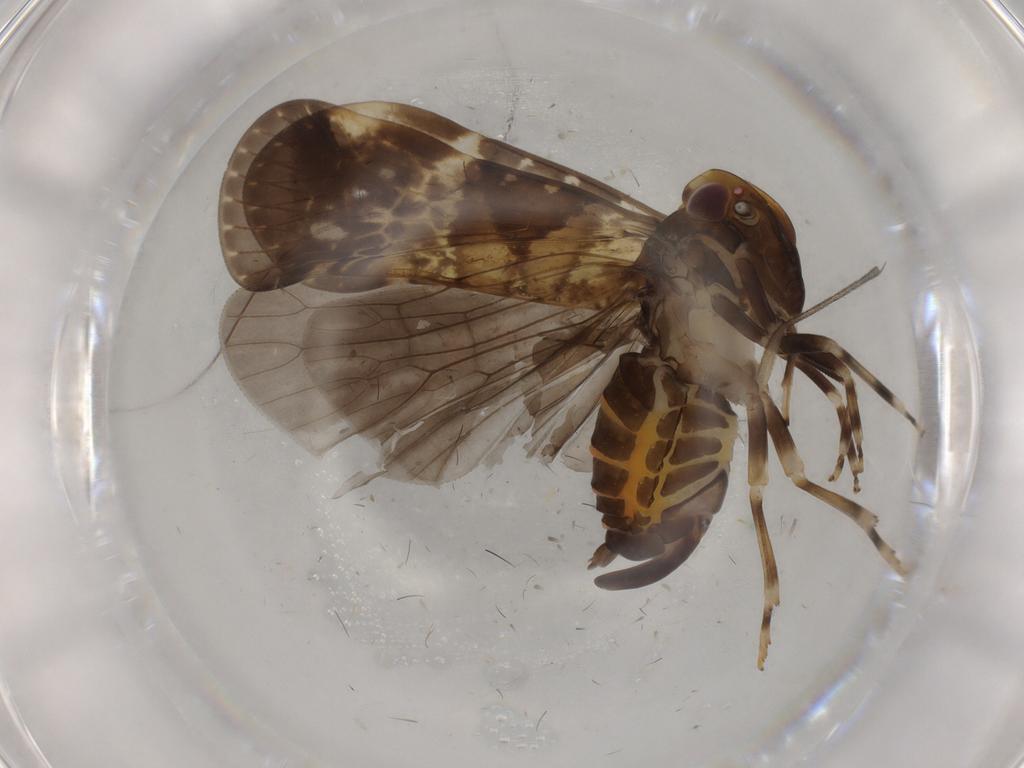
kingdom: Animalia
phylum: Arthropoda
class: Insecta
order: Hemiptera
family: Cixiidae
